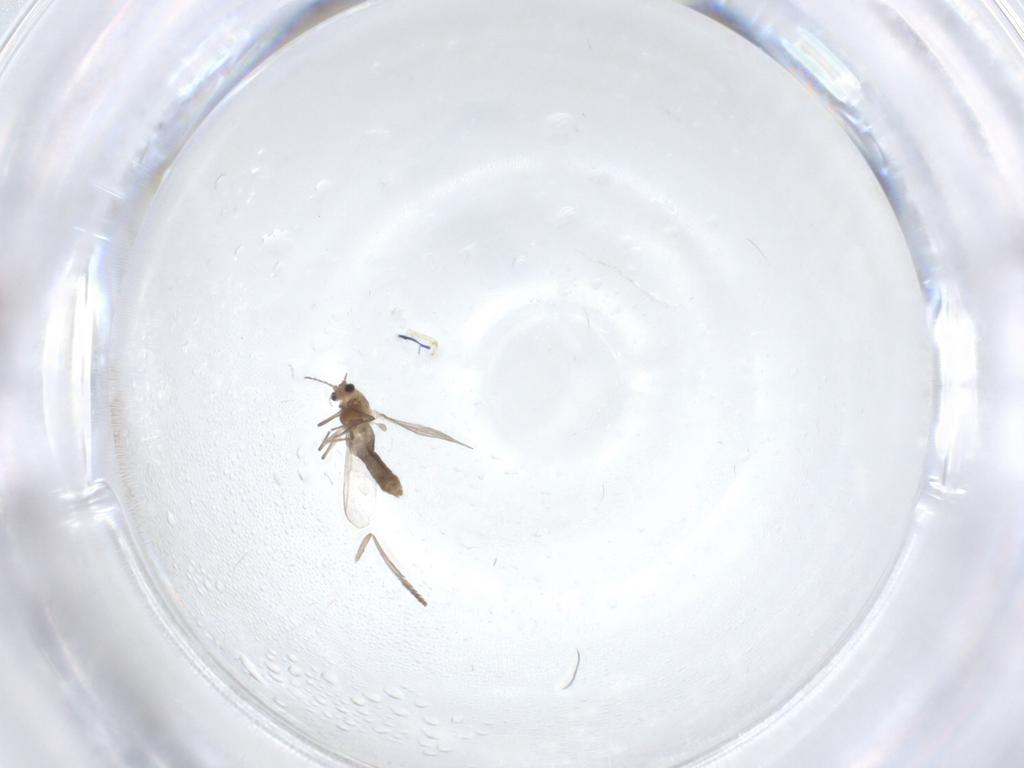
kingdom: Animalia
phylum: Arthropoda
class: Insecta
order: Diptera
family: Chironomidae
